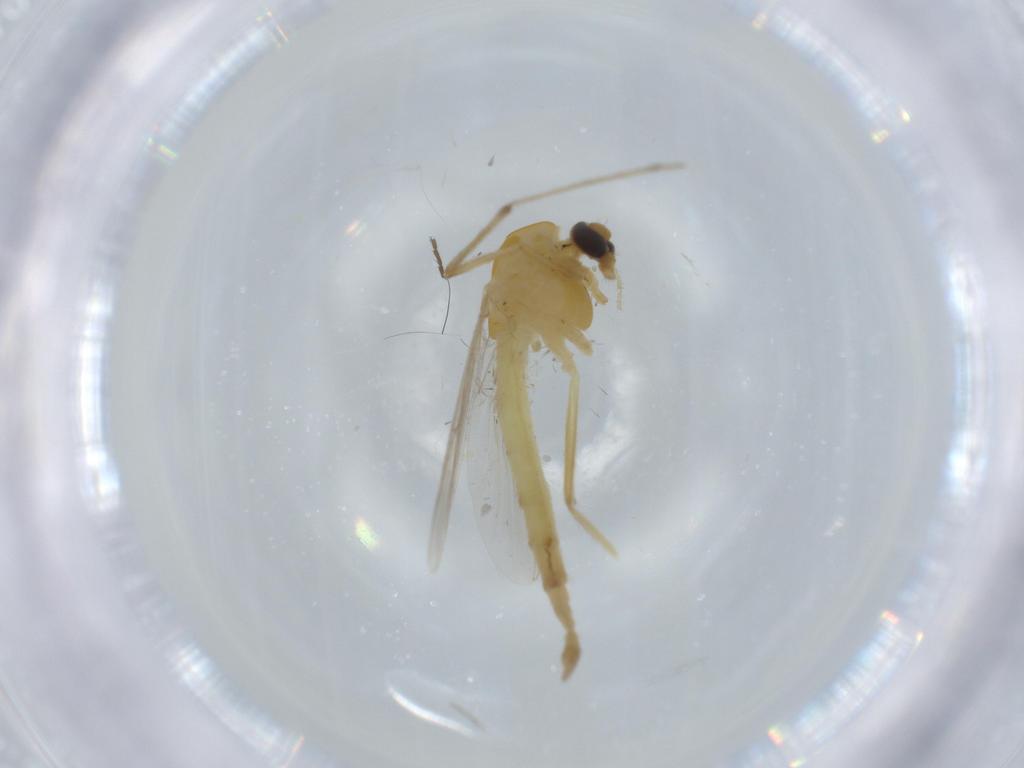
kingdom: Animalia
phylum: Arthropoda
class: Insecta
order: Diptera
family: Chironomidae
